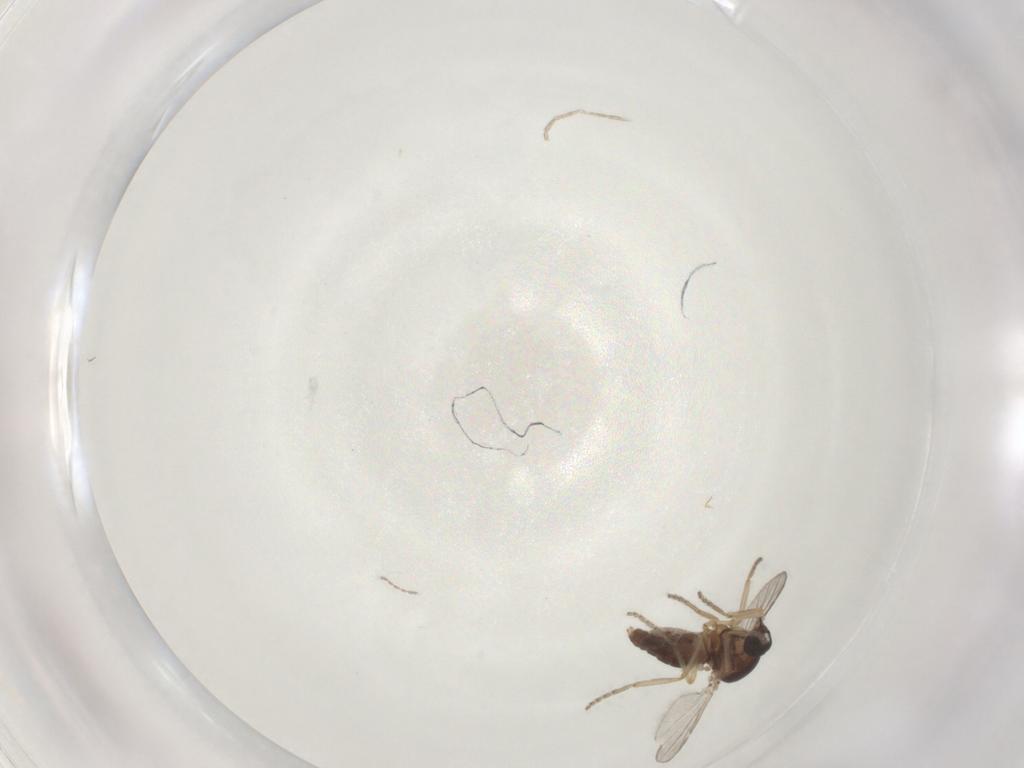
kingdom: Animalia
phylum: Arthropoda
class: Insecta
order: Diptera
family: Ceratopogonidae
